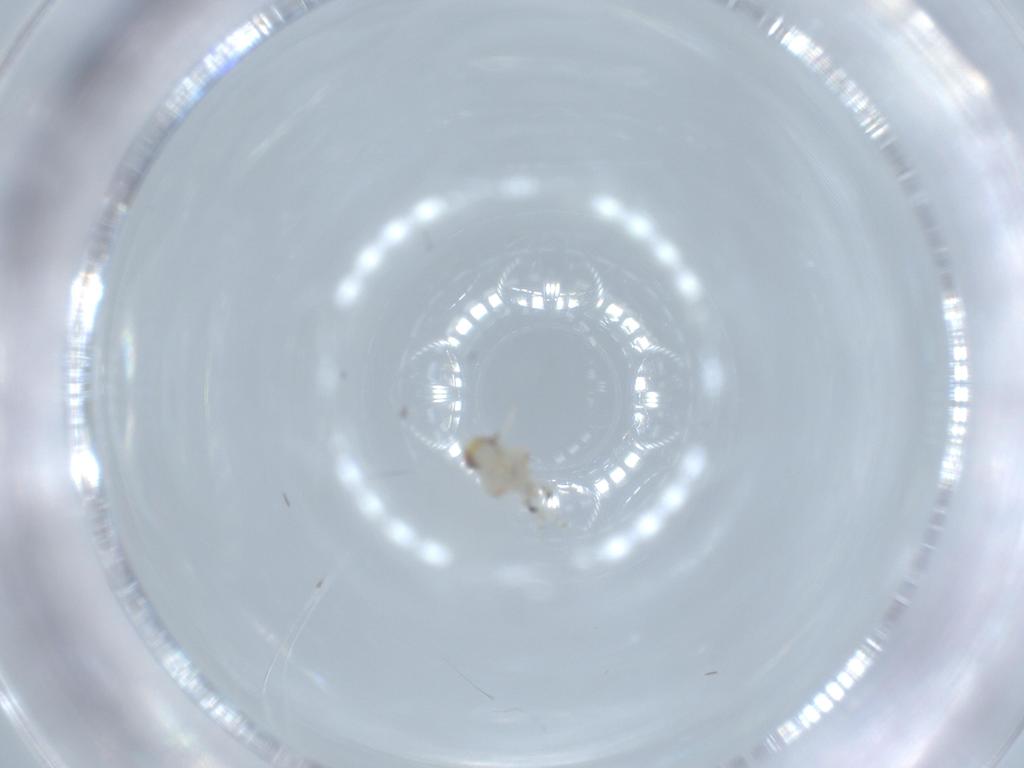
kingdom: Animalia
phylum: Arthropoda
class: Insecta
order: Hemiptera
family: Nogodinidae
